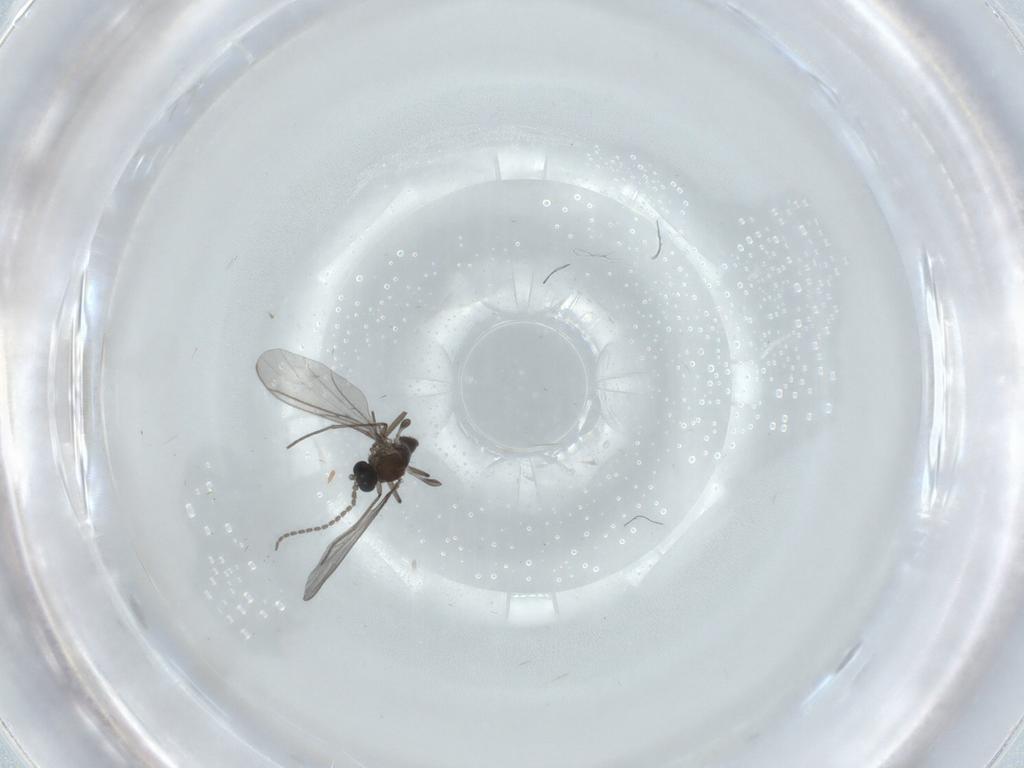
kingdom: Animalia
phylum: Arthropoda
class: Insecta
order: Diptera
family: Sciaridae
